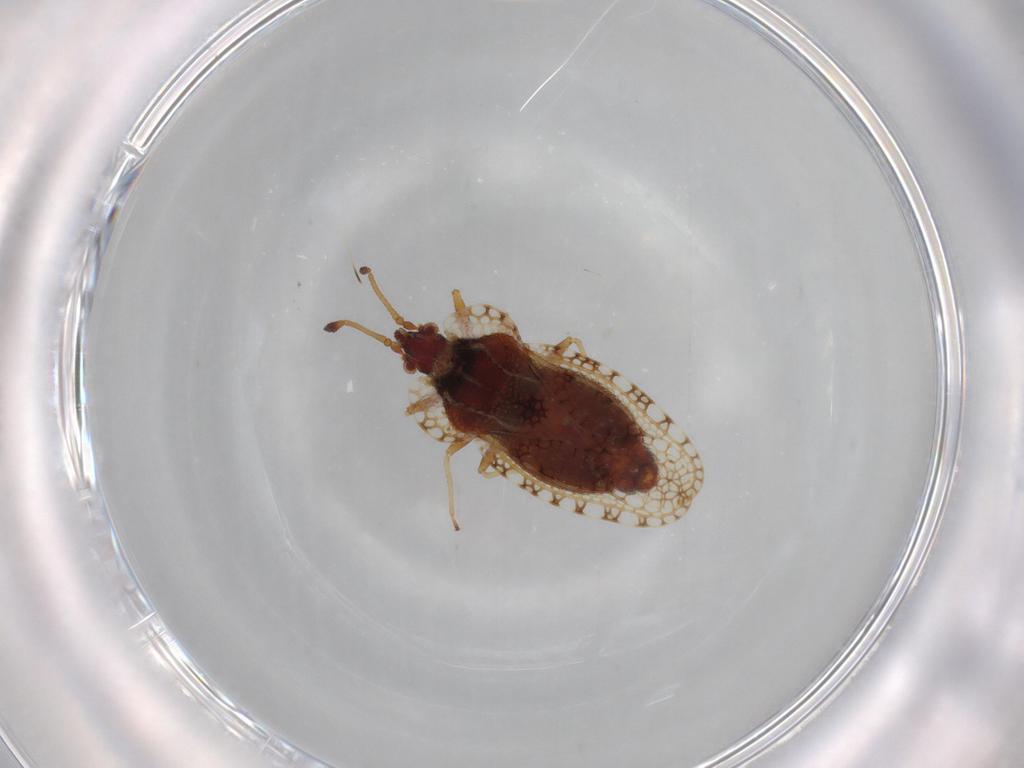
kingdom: Animalia
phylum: Arthropoda
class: Insecta
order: Hemiptera
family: Tingidae
